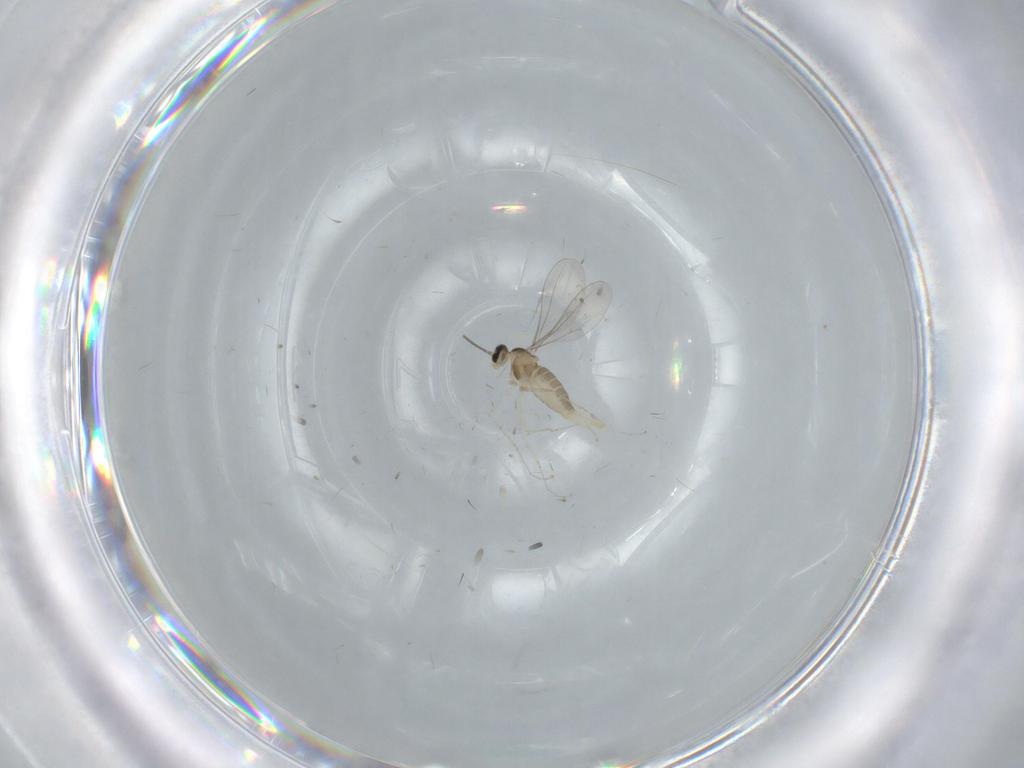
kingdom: Animalia
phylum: Arthropoda
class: Insecta
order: Diptera
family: Cecidomyiidae
